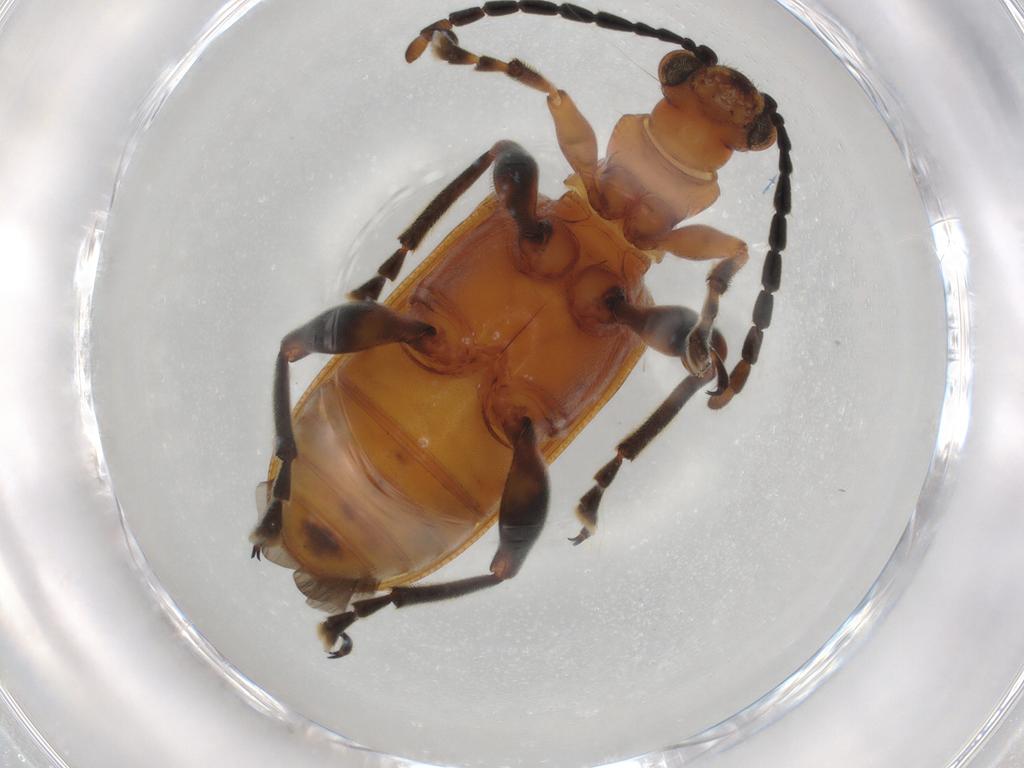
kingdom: Animalia
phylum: Arthropoda
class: Insecta
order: Coleoptera
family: Chrysomelidae
